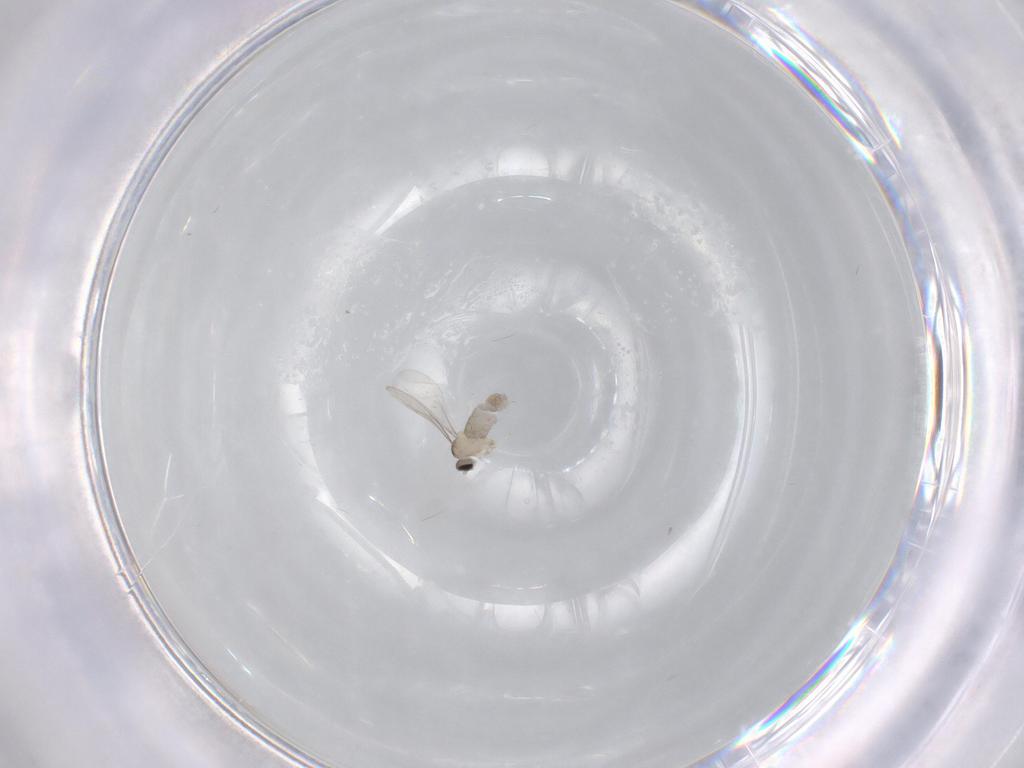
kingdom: Animalia
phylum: Arthropoda
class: Insecta
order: Diptera
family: Cecidomyiidae
